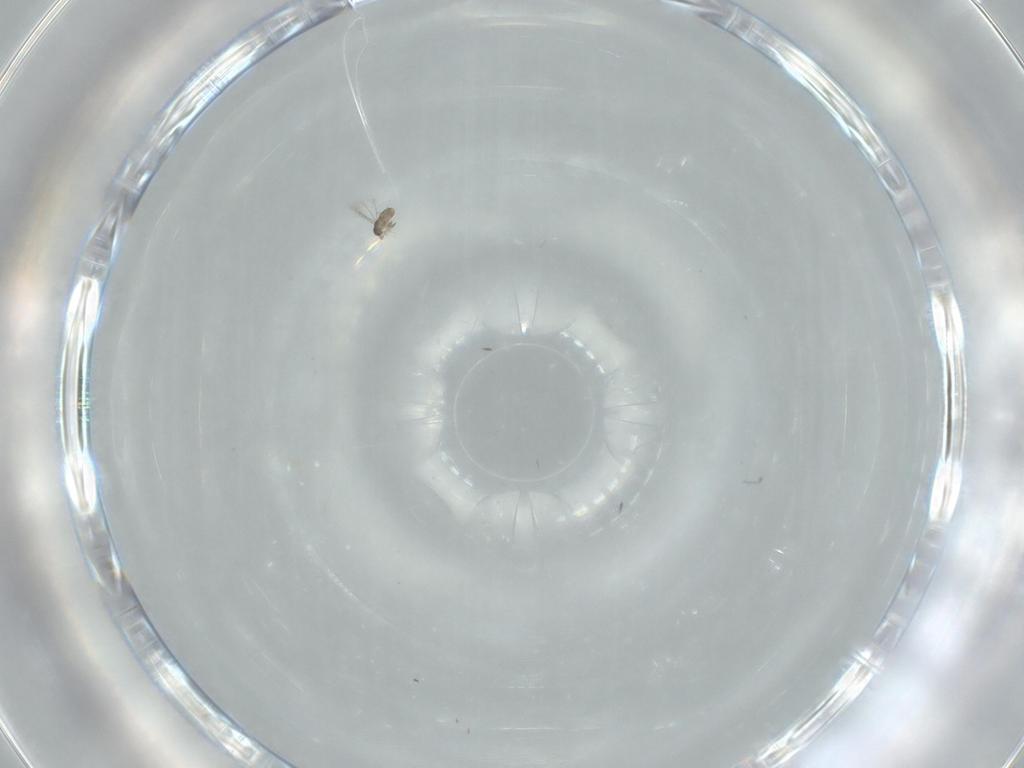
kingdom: Animalia
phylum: Arthropoda
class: Insecta
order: Hymenoptera
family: Mymaridae
